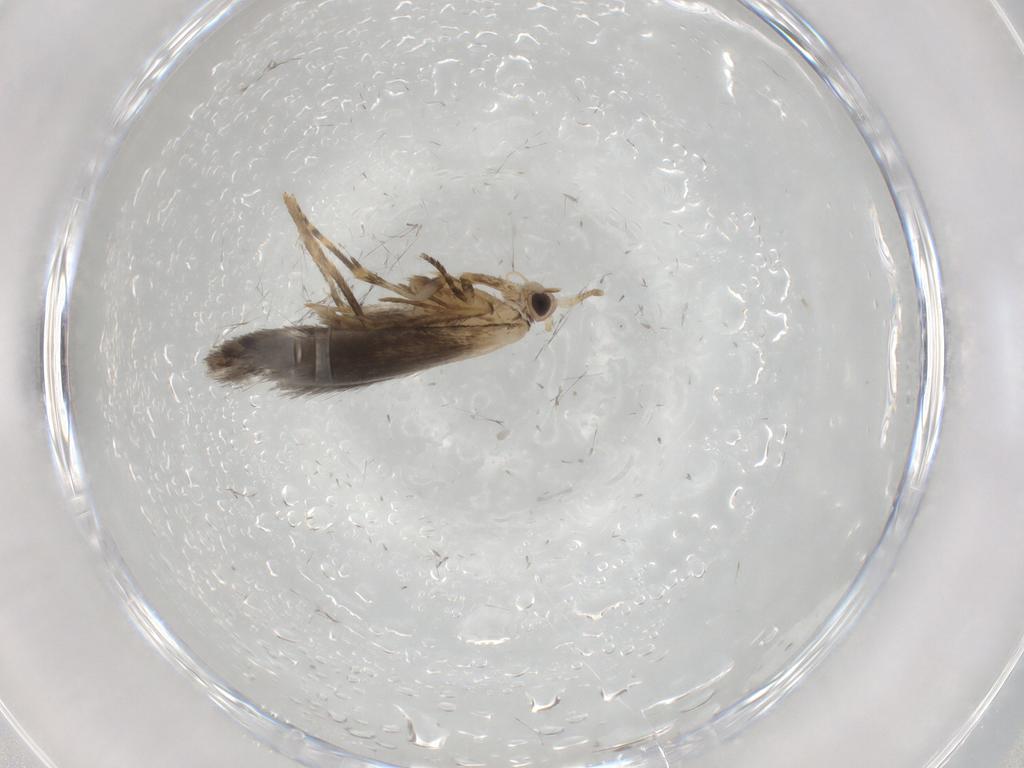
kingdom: Animalia
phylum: Arthropoda
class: Insecta
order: Lepidoptera
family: Tineidae
